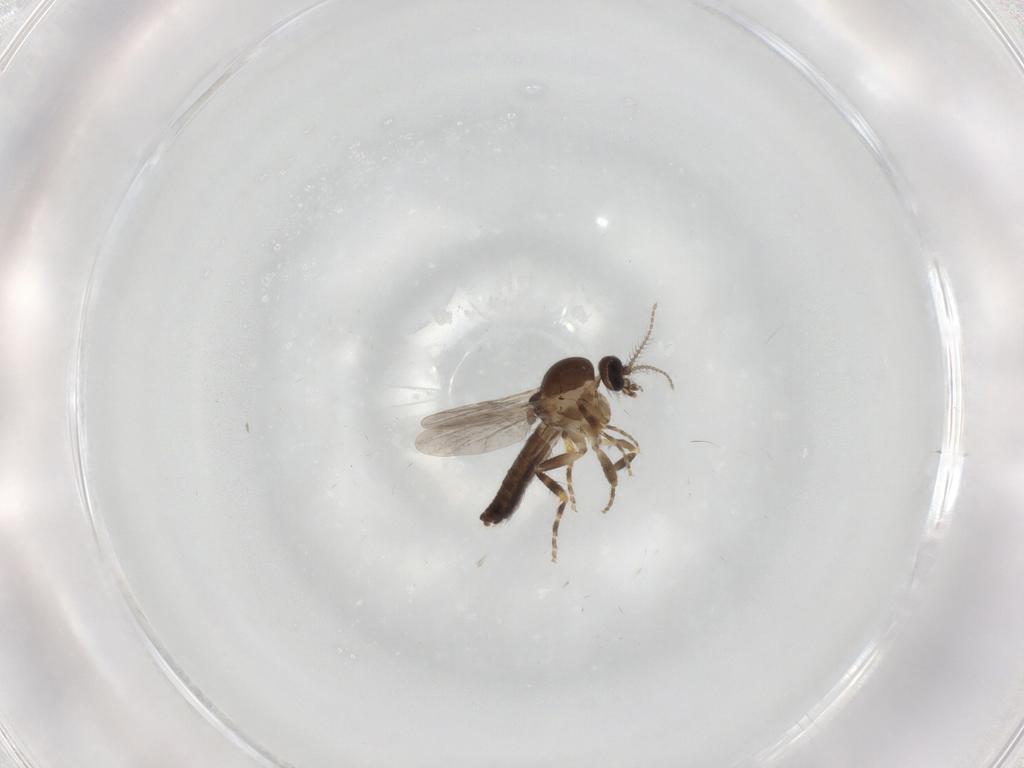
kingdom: Animalia
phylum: Arthropoda
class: Insecta
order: Diptera
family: Ceratopogonidae
